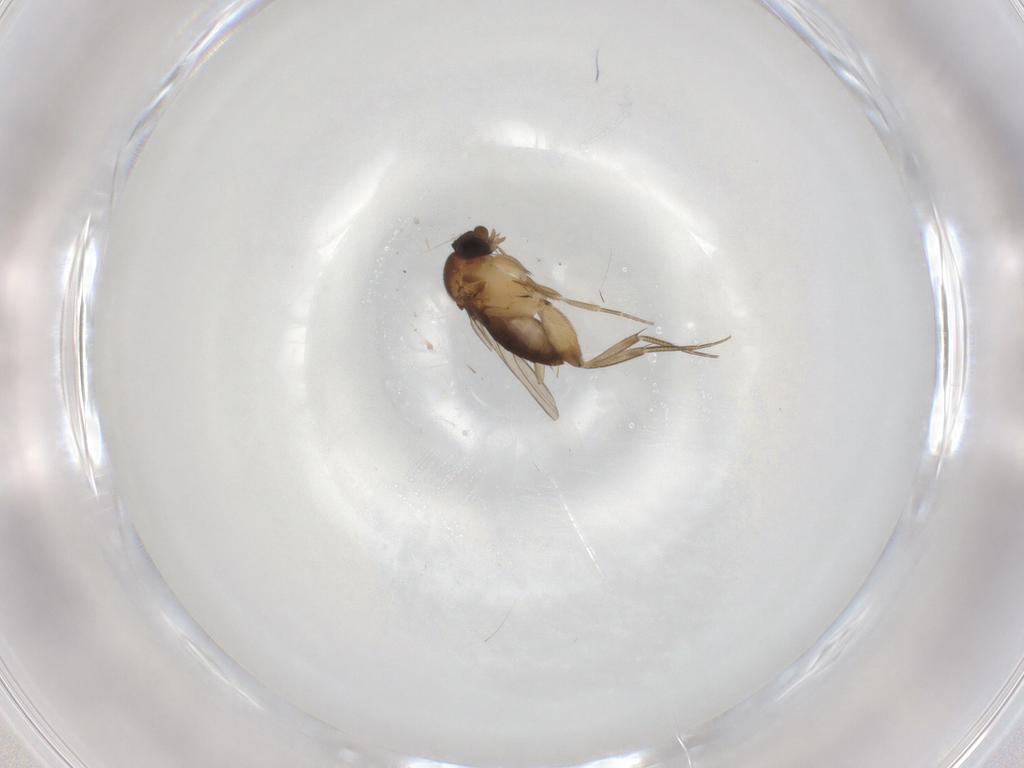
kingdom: Animalia
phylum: Arthropoda
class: Insecta
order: Diptera
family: Phoridae
